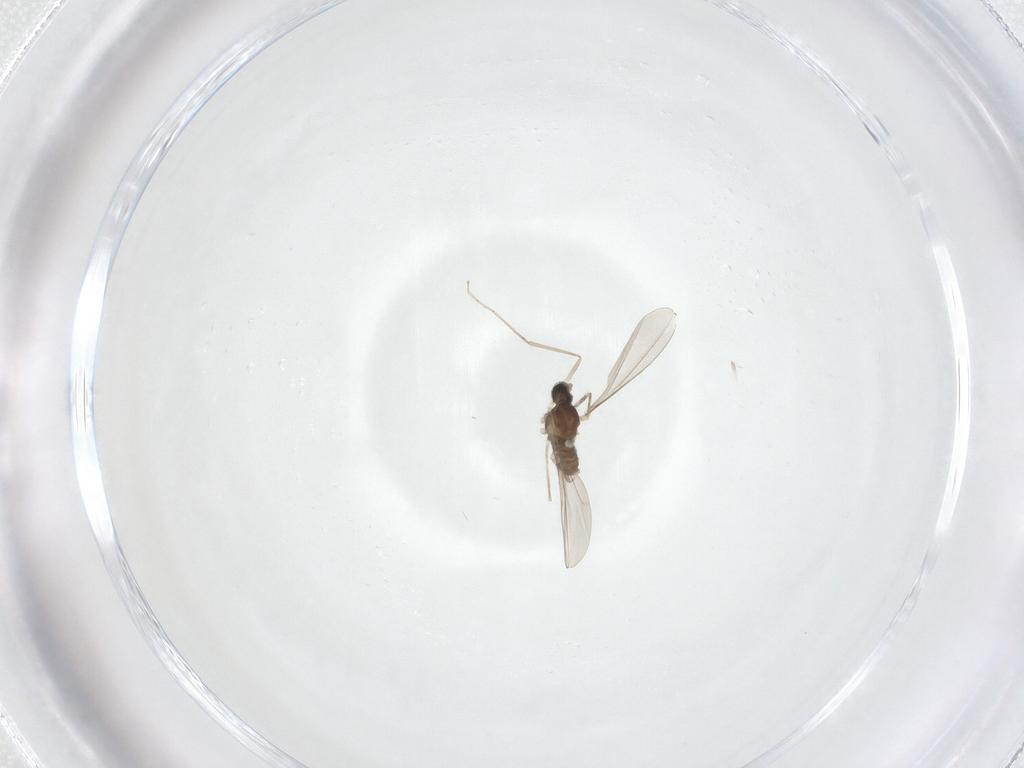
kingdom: Animalia
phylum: Arthropoda
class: Insecta
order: Diptera
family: Cecidomyiidae
